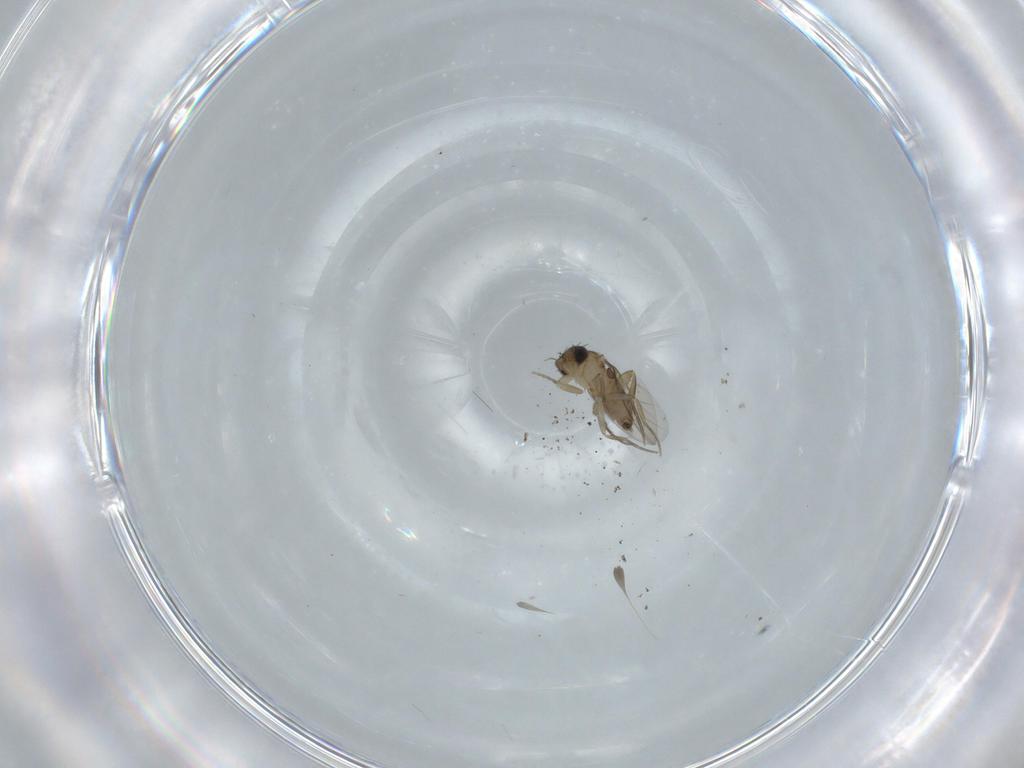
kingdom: Animalia
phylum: Arthropoda
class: Insecta
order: Diptera
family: Phoridae
